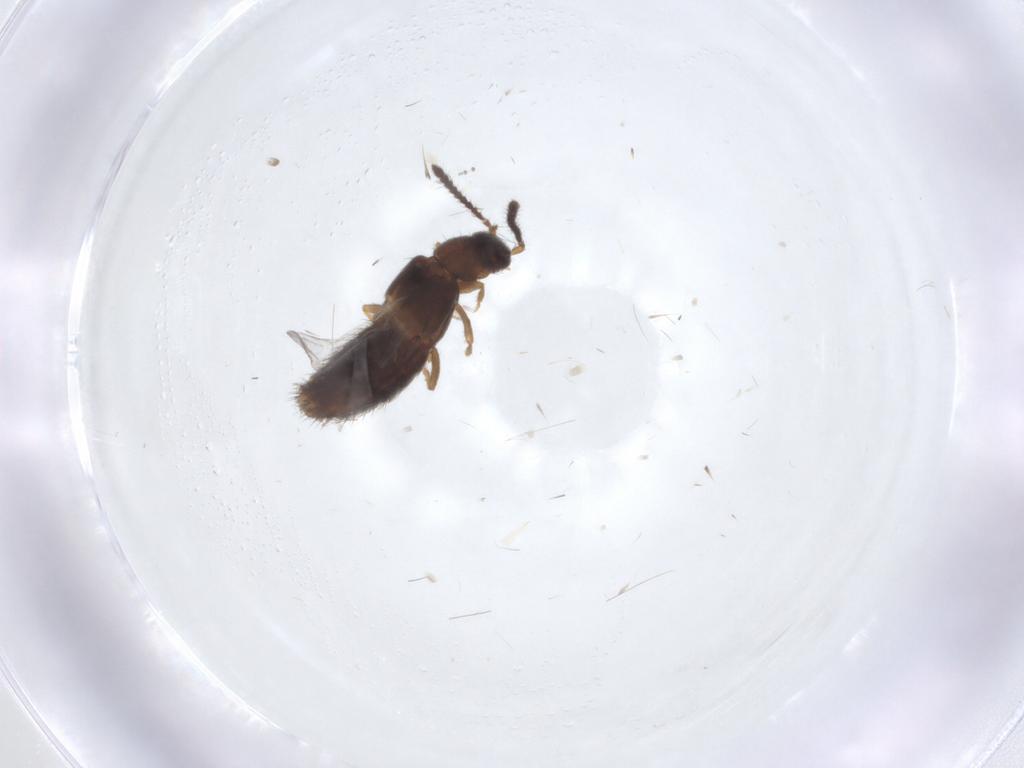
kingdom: Animalia
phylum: Arthropoda
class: Insecta
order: Coleoptera
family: Staphylinidae
